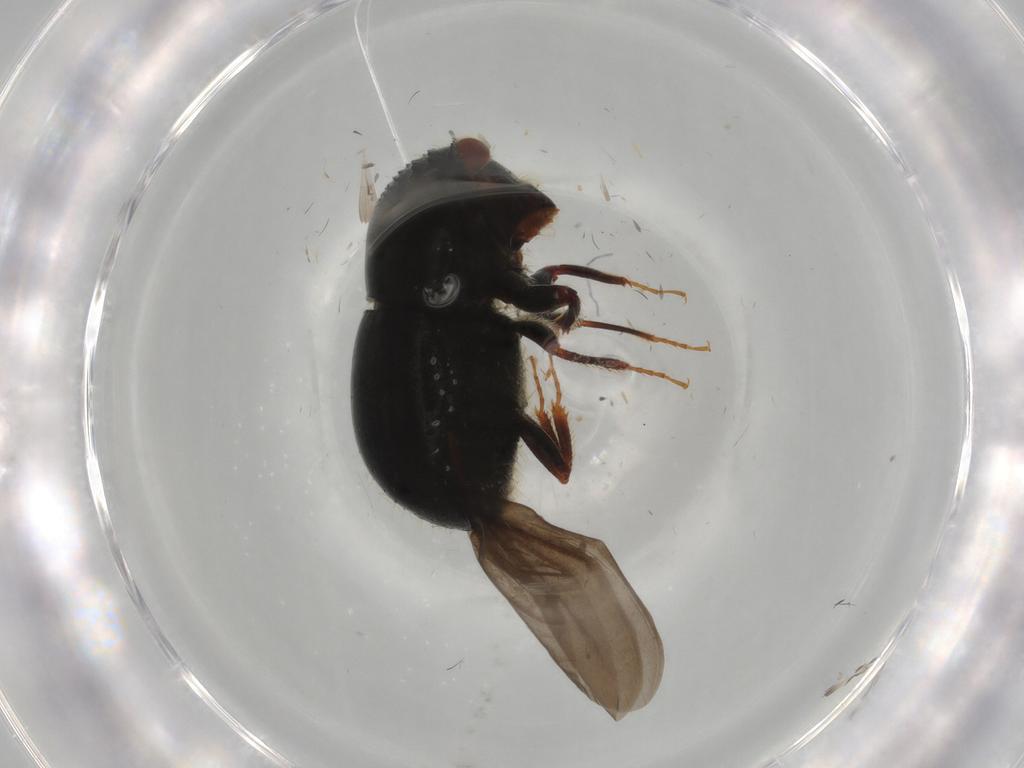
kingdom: Animalia
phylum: Arthropoda
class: Insecta
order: Coleoptera
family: Curculionidae
